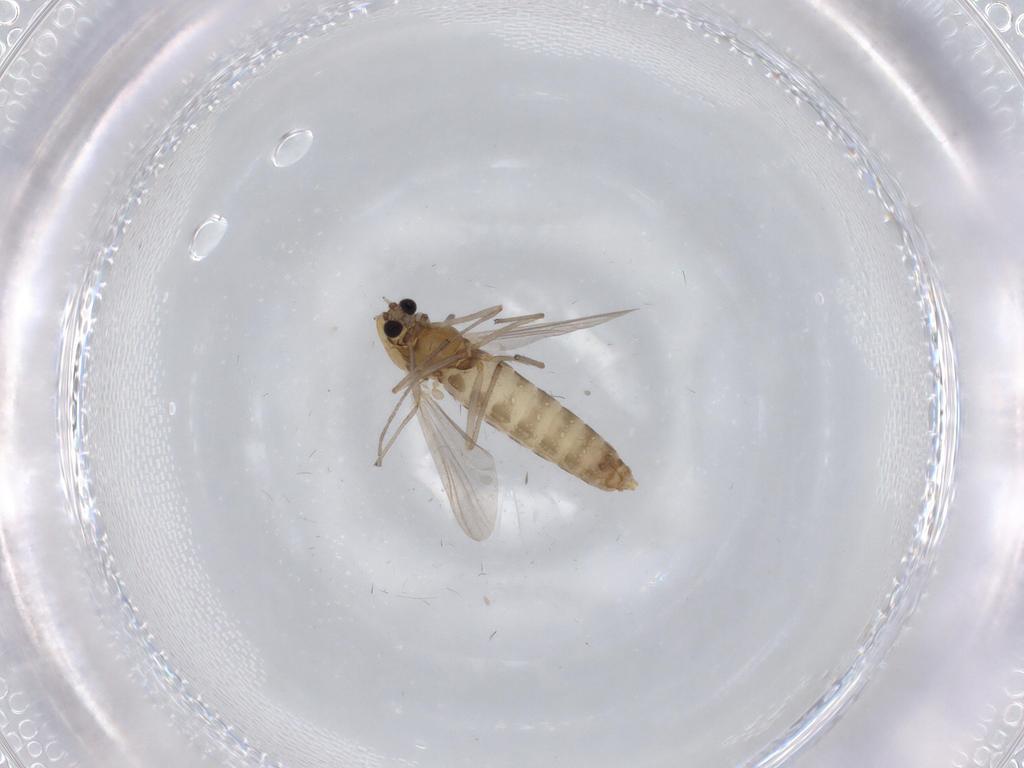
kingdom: Animalia
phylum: Arthropoda
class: Insecta
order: Diptera
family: Chironomidae
